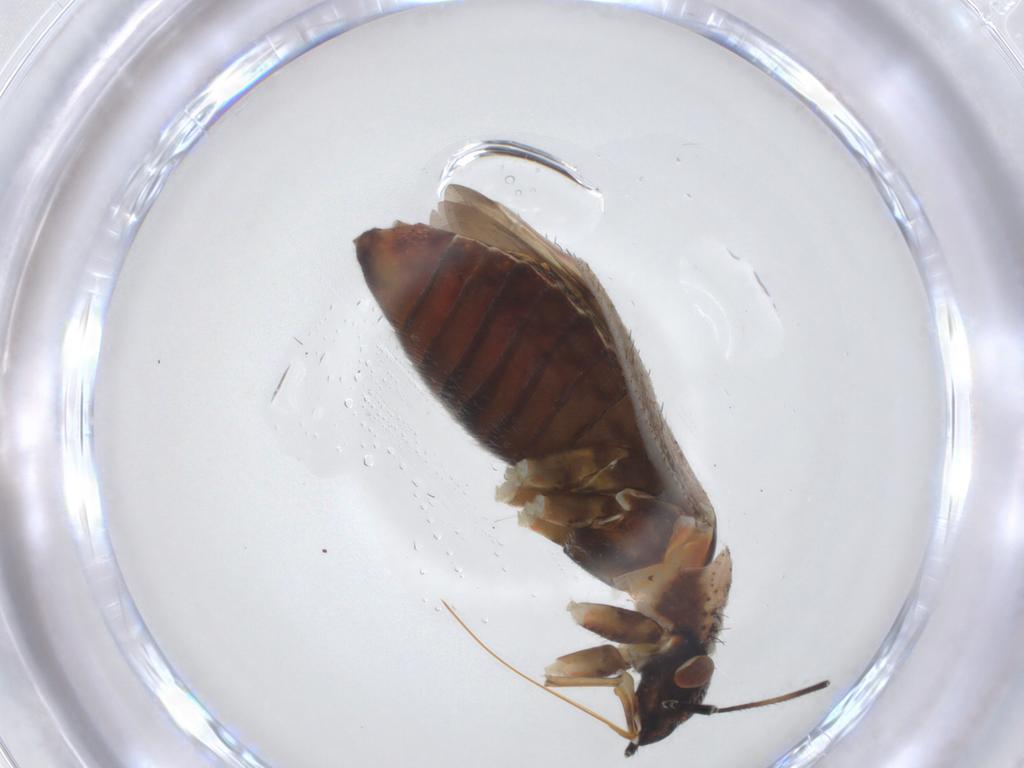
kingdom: Animalia
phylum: Arthropoda
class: Insecta
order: Hemiptera
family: Miridae
